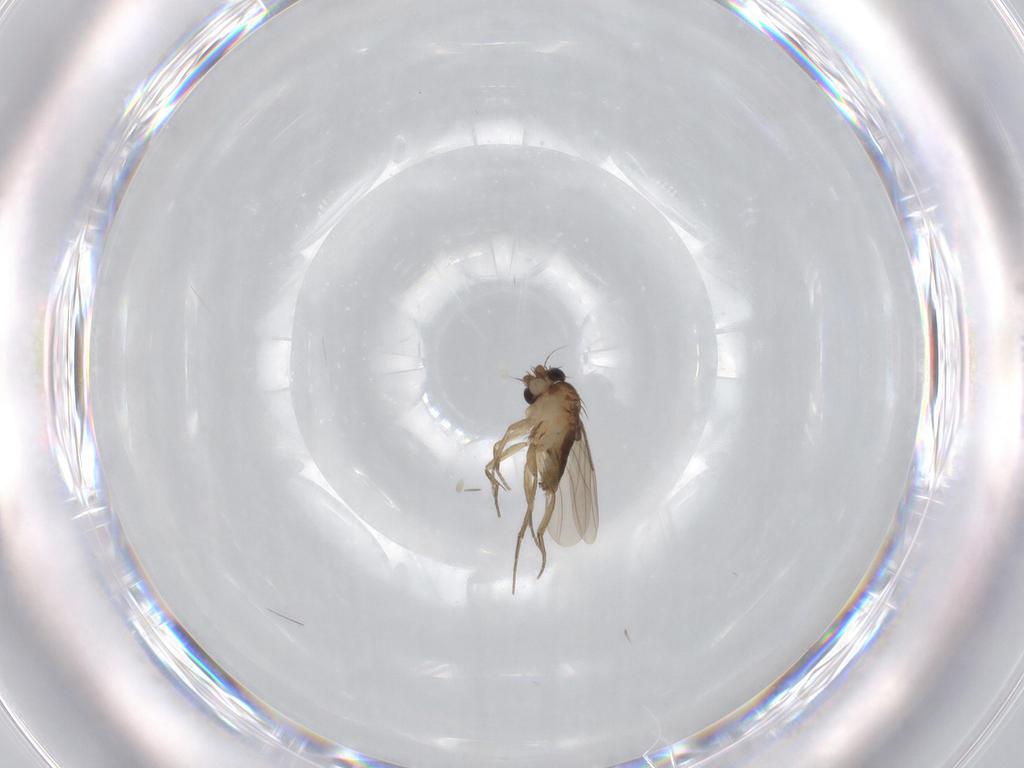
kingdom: Animalia
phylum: Arthropoda
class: Insecta
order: Diptera
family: Phoridae
